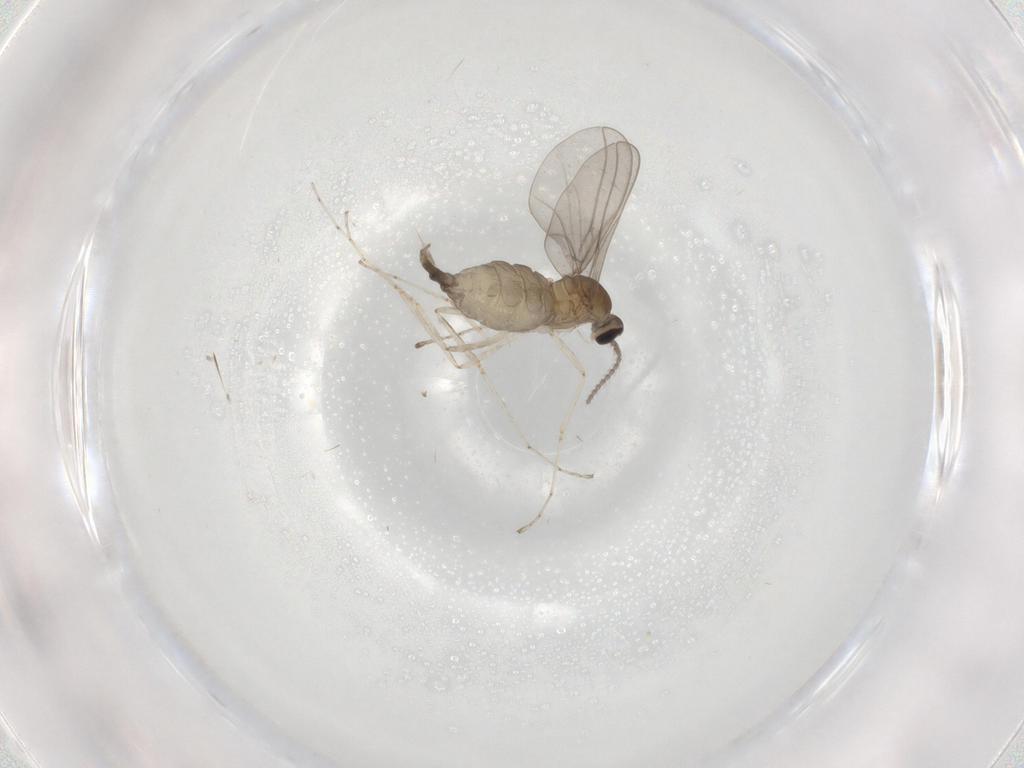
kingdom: Animalia
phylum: Arthropoda
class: Insecta
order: Diptera
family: Cecidomyiidae
